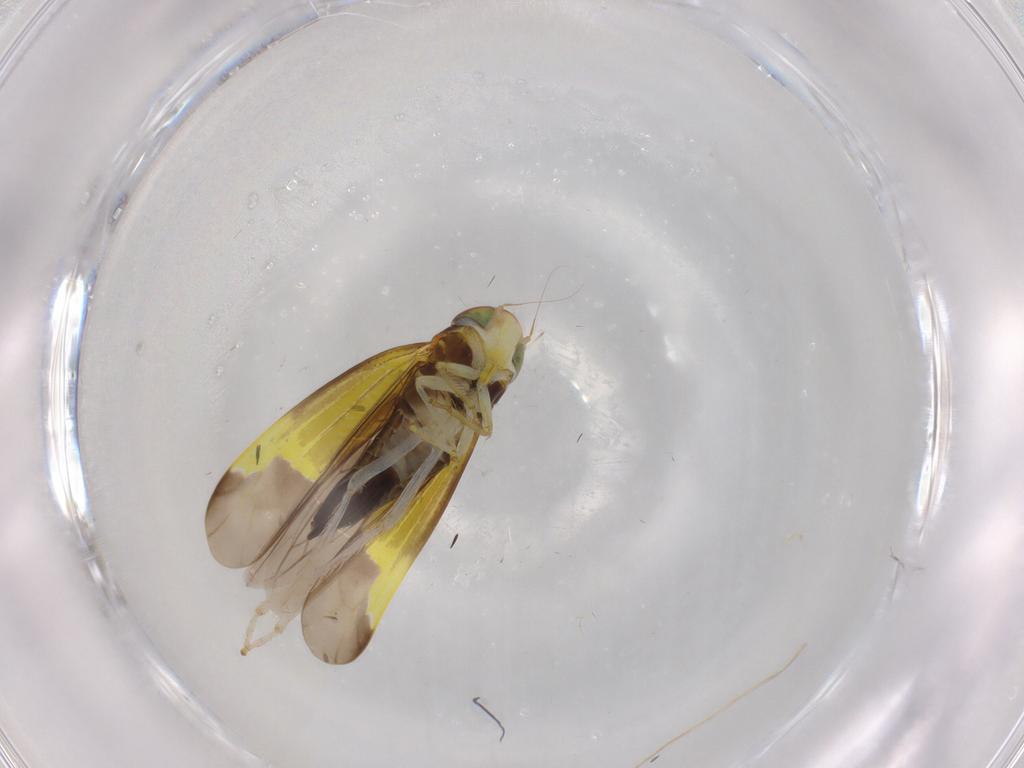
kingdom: Animalia
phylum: Arthropoda
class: Insecta
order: Hemiptera
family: Cicadellidae
